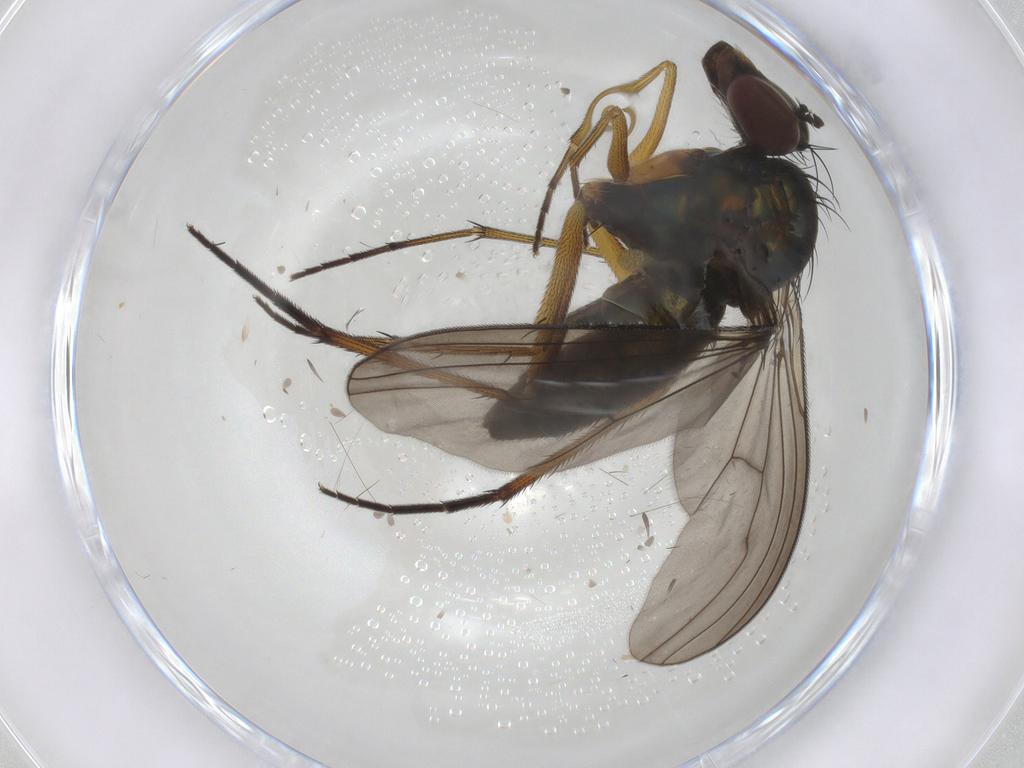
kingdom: Animalia
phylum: Arthropoda
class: Insecta
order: Diptera
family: Dolichopodidae
